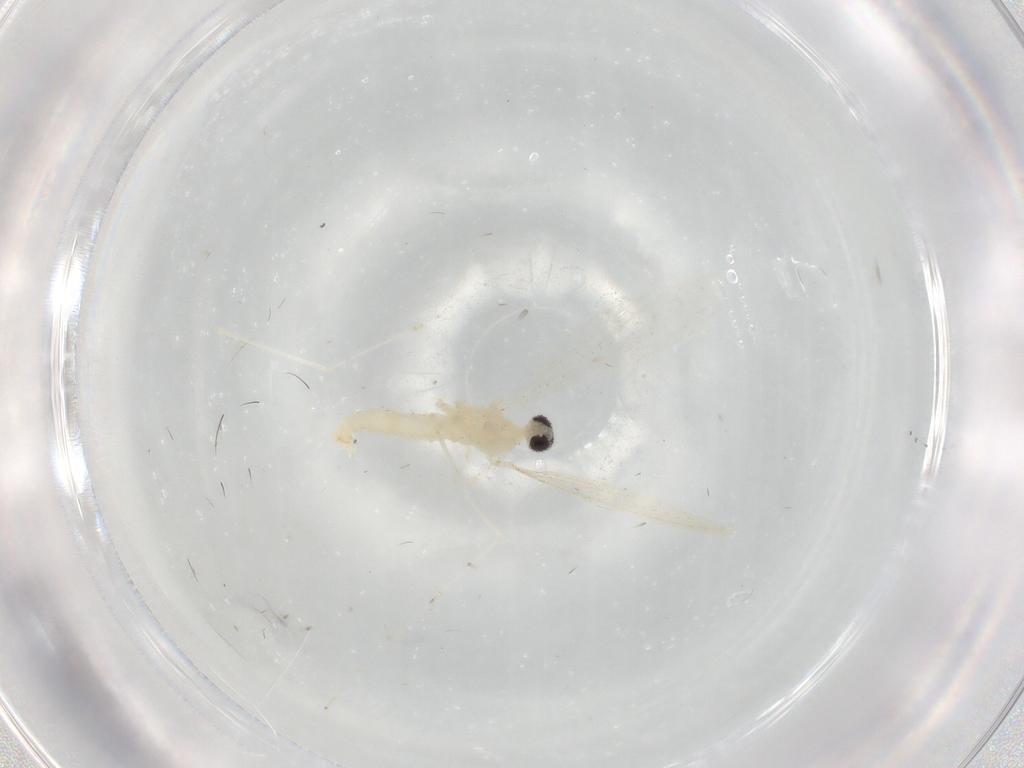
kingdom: Animalia
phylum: Arthropoda
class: Insecta
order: Diptera
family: Cecidomyiidae
